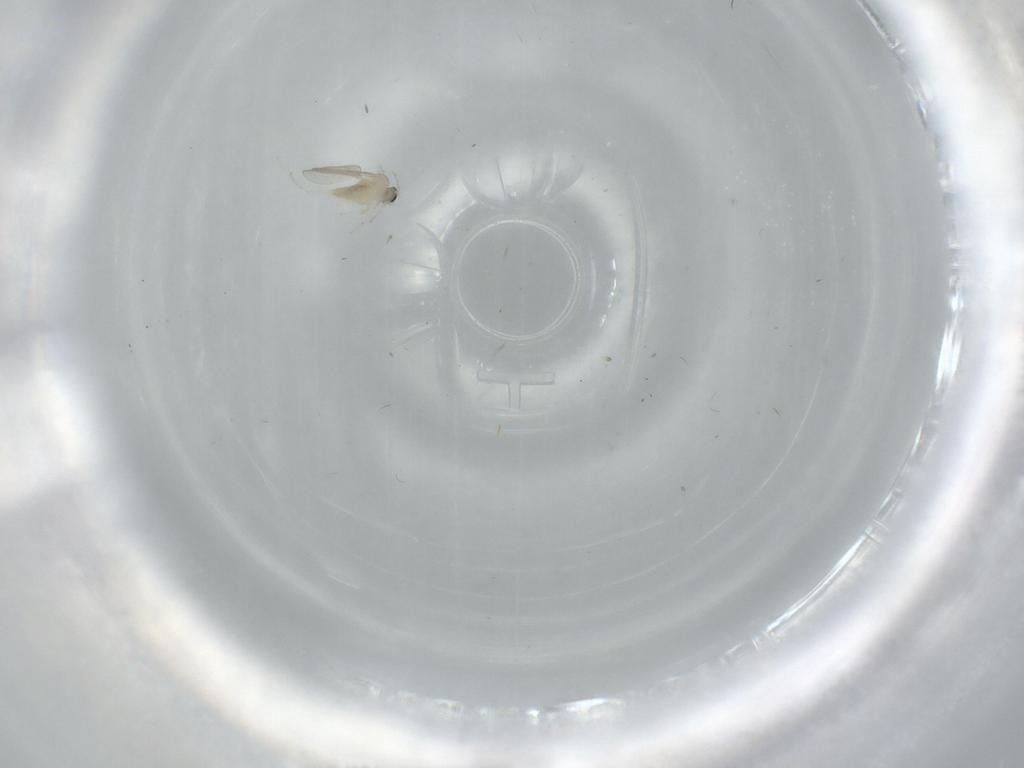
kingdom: Animalia
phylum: Arthropoda
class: Insecta
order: Diptera
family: Cecidomyiidae
